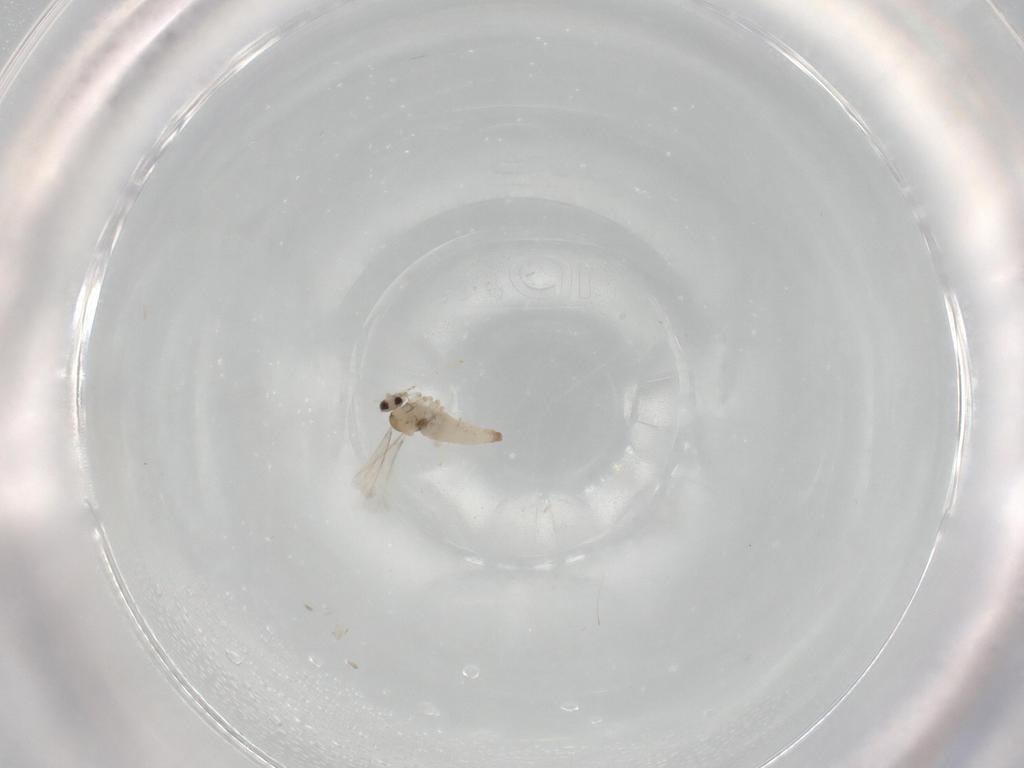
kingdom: Animalia
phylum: Arthropoda
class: Insecta
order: Diptera
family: Cecidomyiidae
